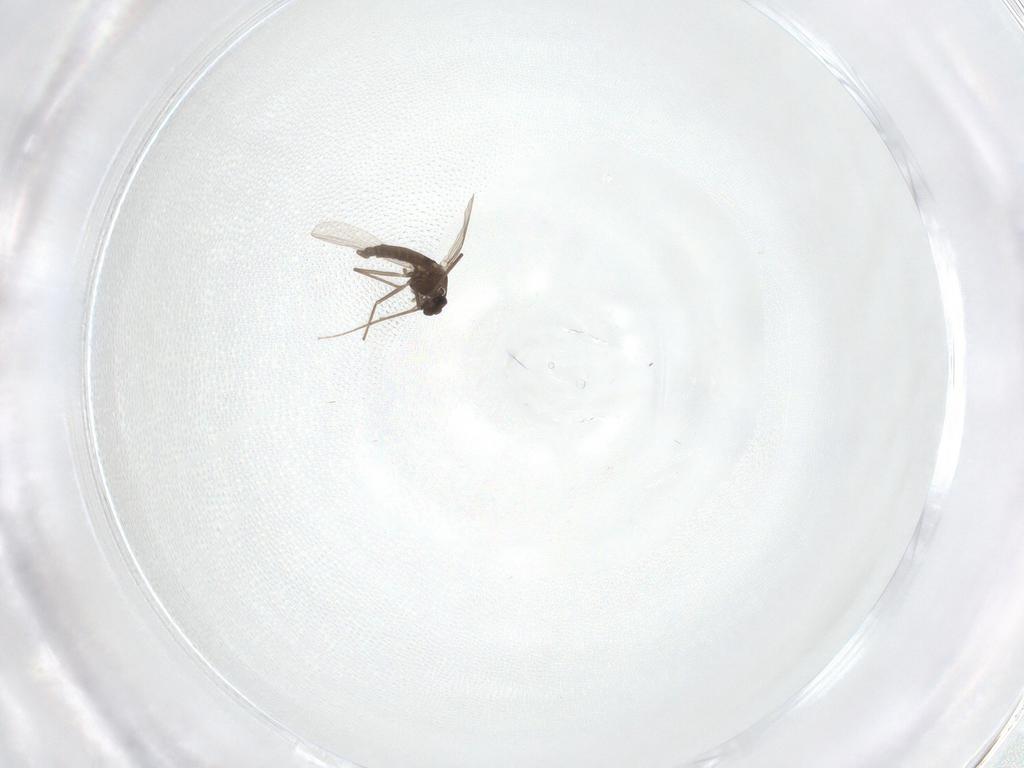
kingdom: Animalia
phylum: Arthropoda
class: Insecta
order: Diptera
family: Chironomidae
